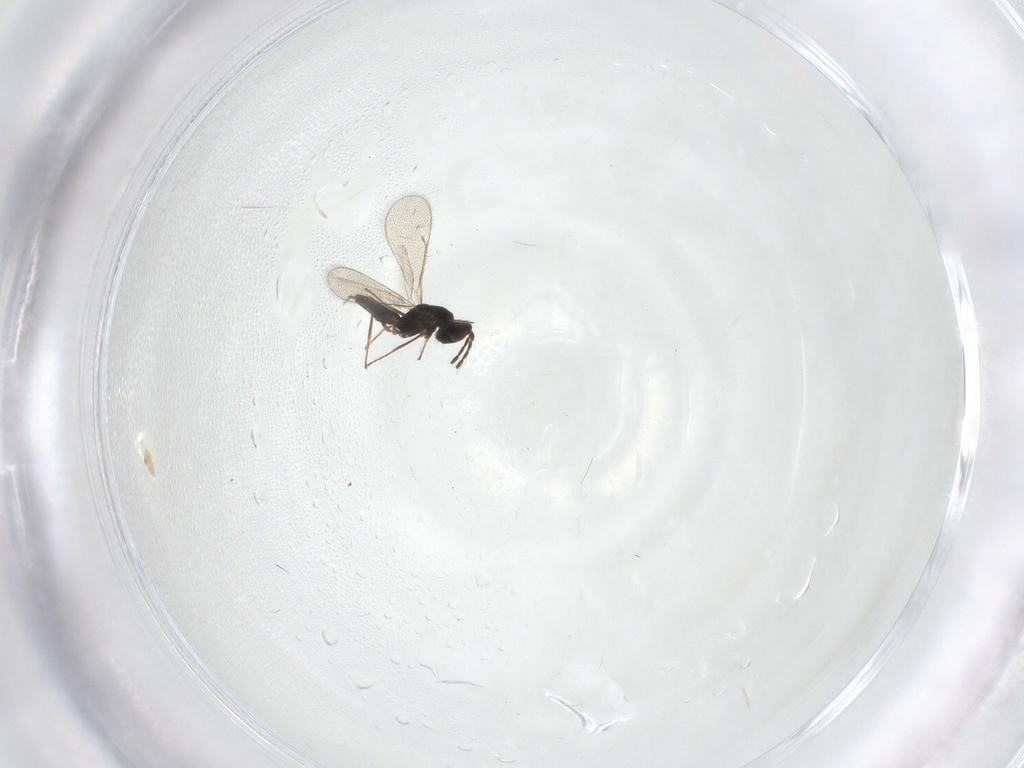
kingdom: Animalia
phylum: Arthropoda
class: Insecta
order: Hymenoptera
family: Eulophidae
